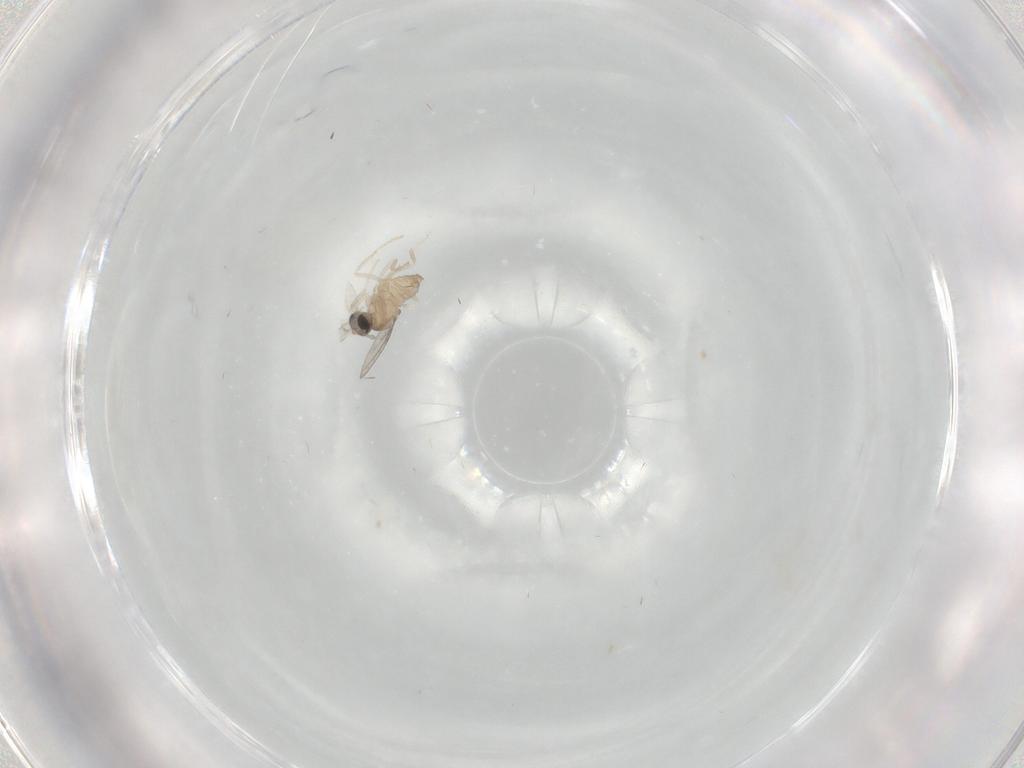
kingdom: Animalia
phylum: Arthropoda
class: Insecta
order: Diptera
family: Cecidomyiidae
